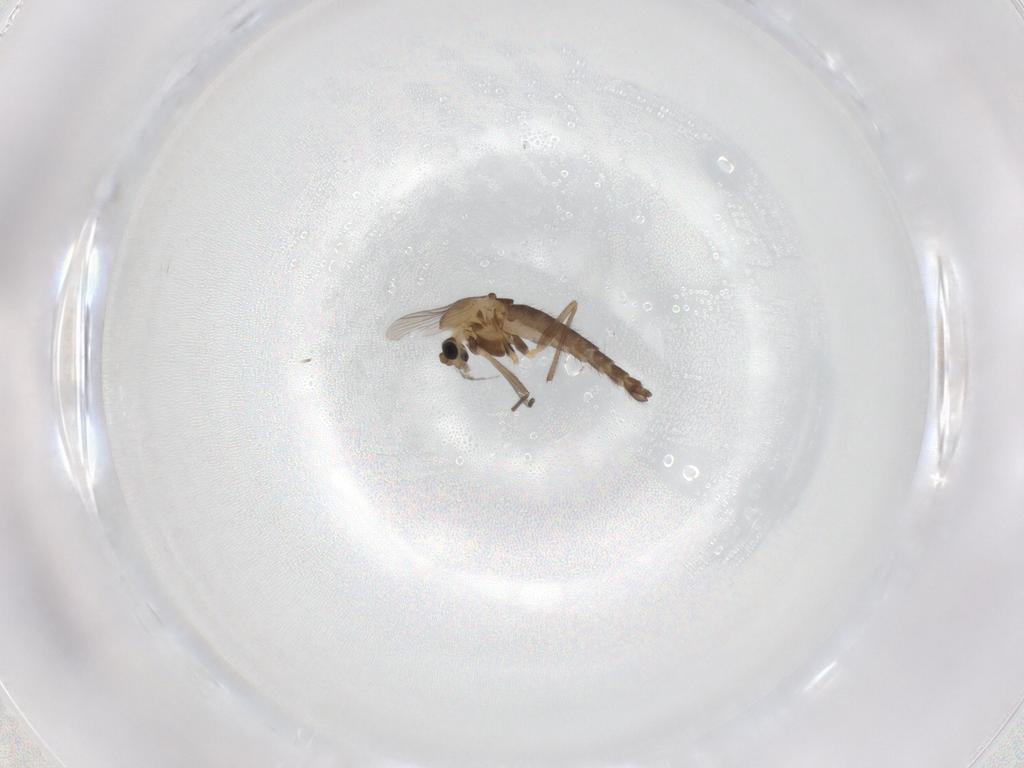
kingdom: Animalia
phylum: Arthropoda
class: Insecta
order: Diptera
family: Chironomidae
